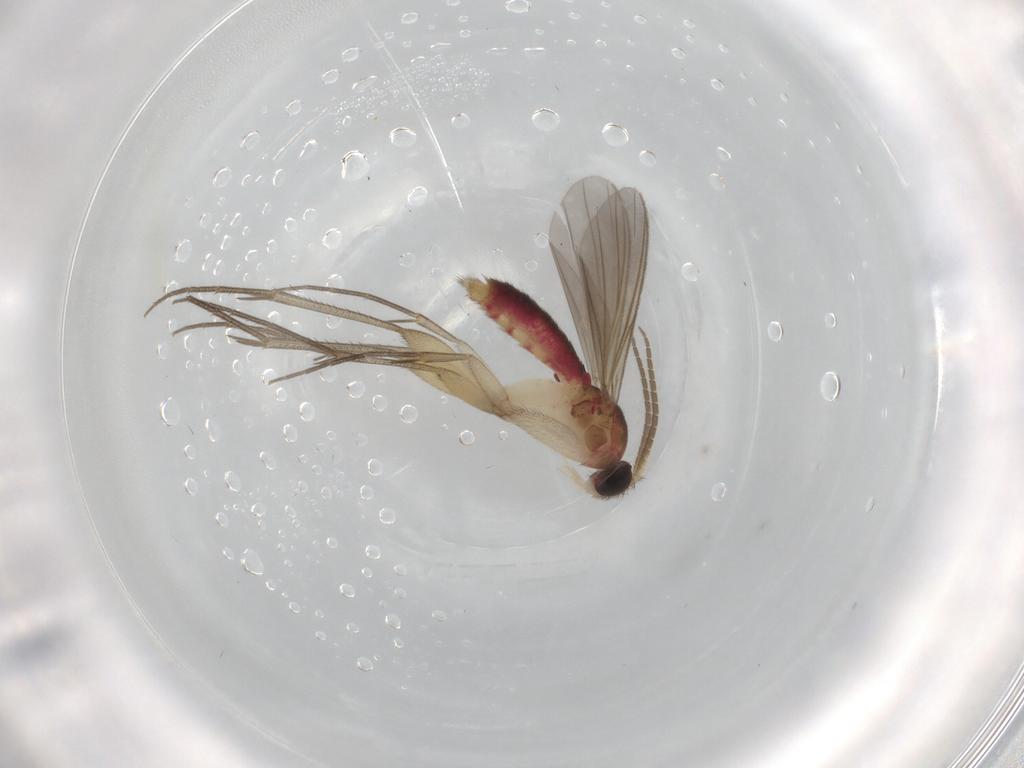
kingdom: Animalia
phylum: Arthropoda
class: Insecta
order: Diptera
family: Mycetophilidae
